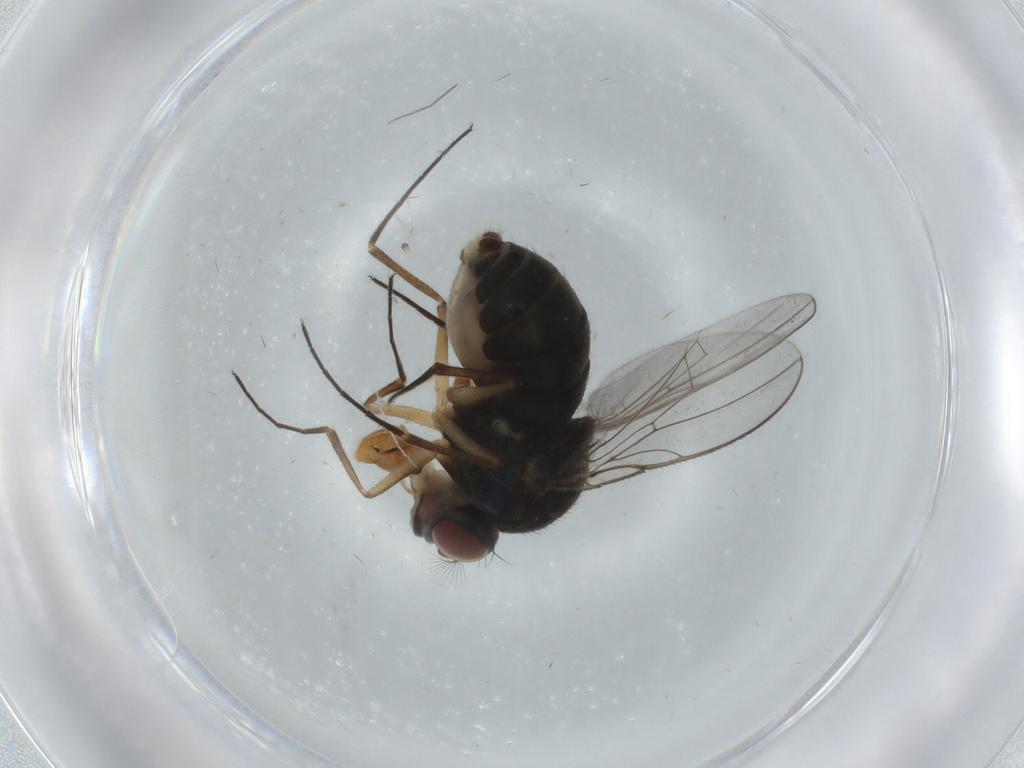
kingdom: Animalia
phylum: Arthropoda
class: Insecta
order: Diptera
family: Ephydridae
